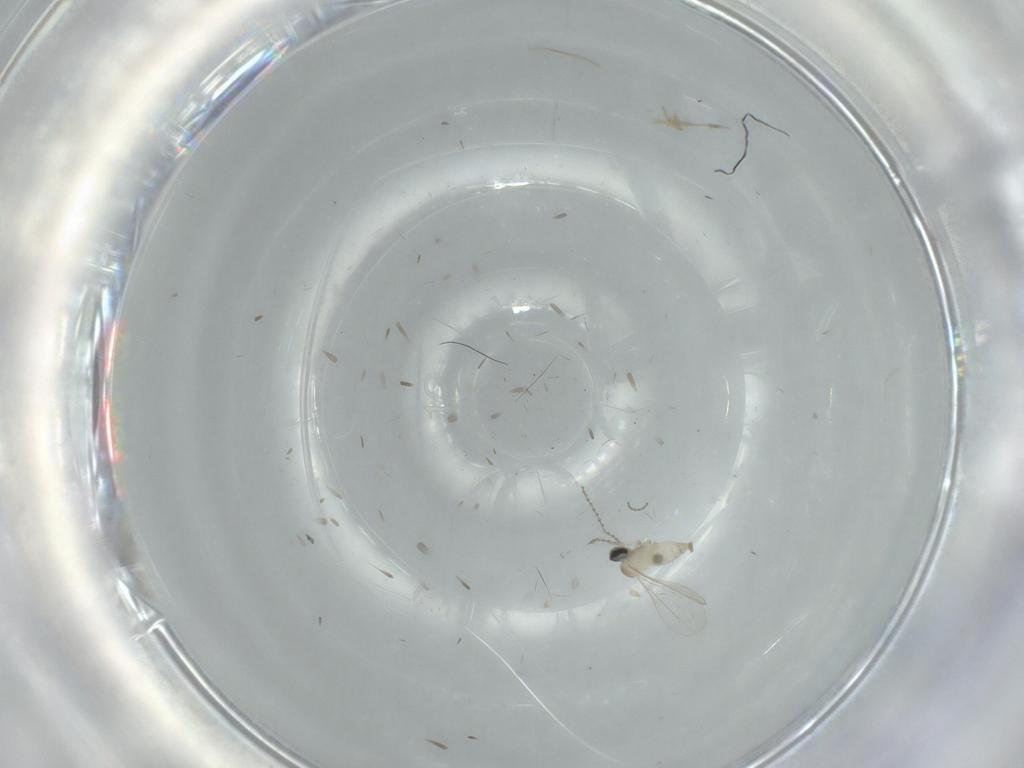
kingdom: Animalia
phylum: Arthropoda
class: Insecta
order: Diptera
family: Cecidomyiidae
